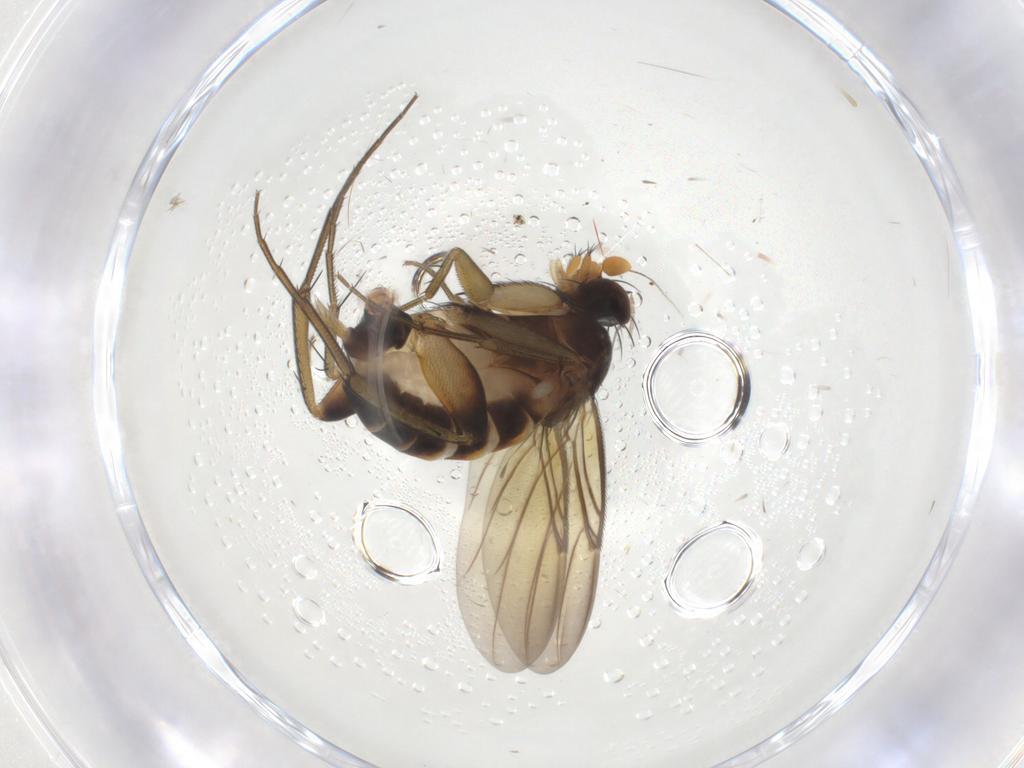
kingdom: Animalia
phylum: Arthropoda
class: Insecta
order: Diptera
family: Phoridae
